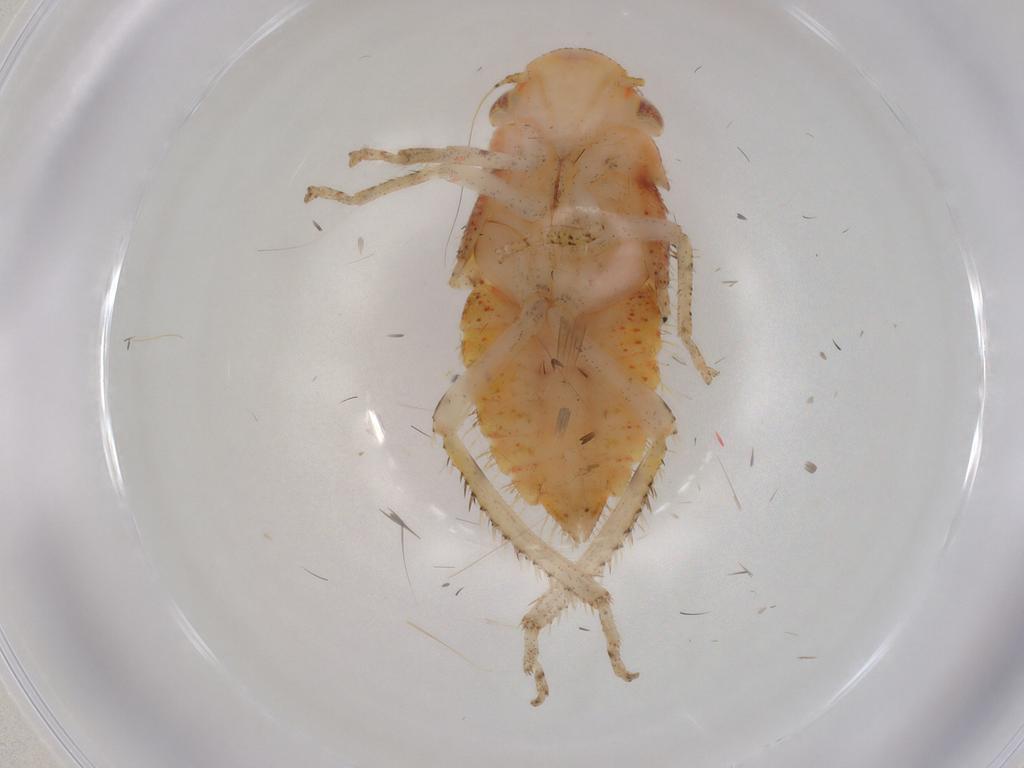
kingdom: Animalia
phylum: Arthropoda
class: Insecta
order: Hemiptera
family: Cicadellidae
